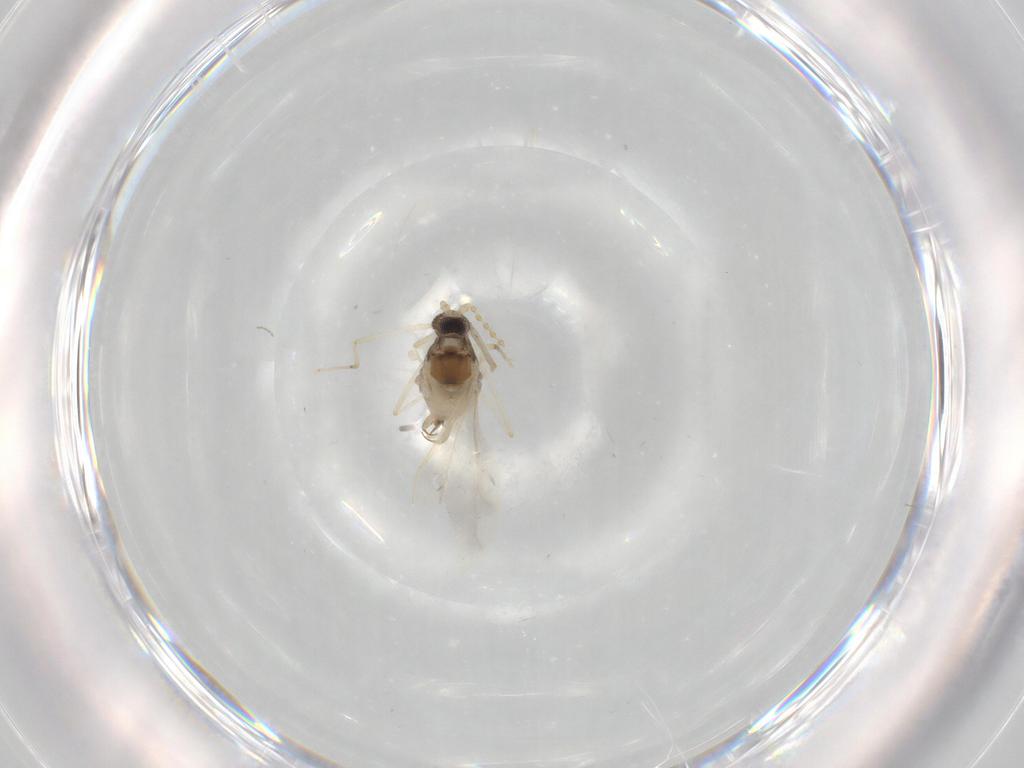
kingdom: Animalia
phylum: Arthropoda
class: Insecta
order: Diptera
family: Cecidomyiidae
